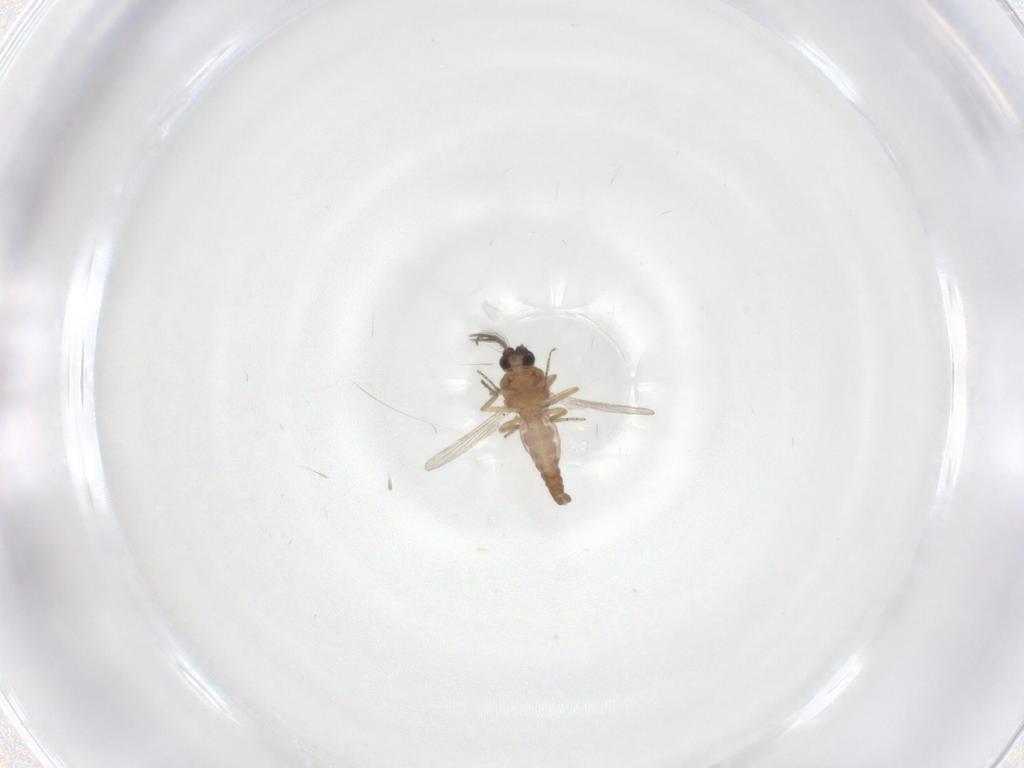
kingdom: Animalia
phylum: Arthropoda
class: Insecta
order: Diptera
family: Ceratopogonidae
